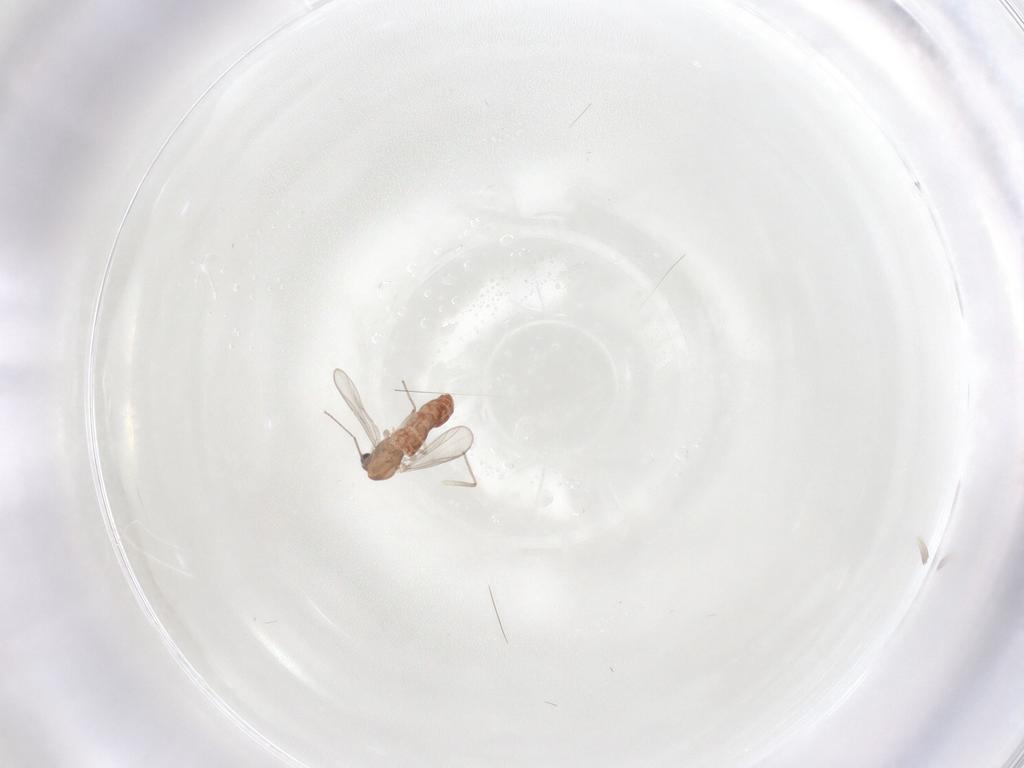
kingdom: Animalia
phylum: Arthropoda
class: Insecta
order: Diptera
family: Chironomidae
